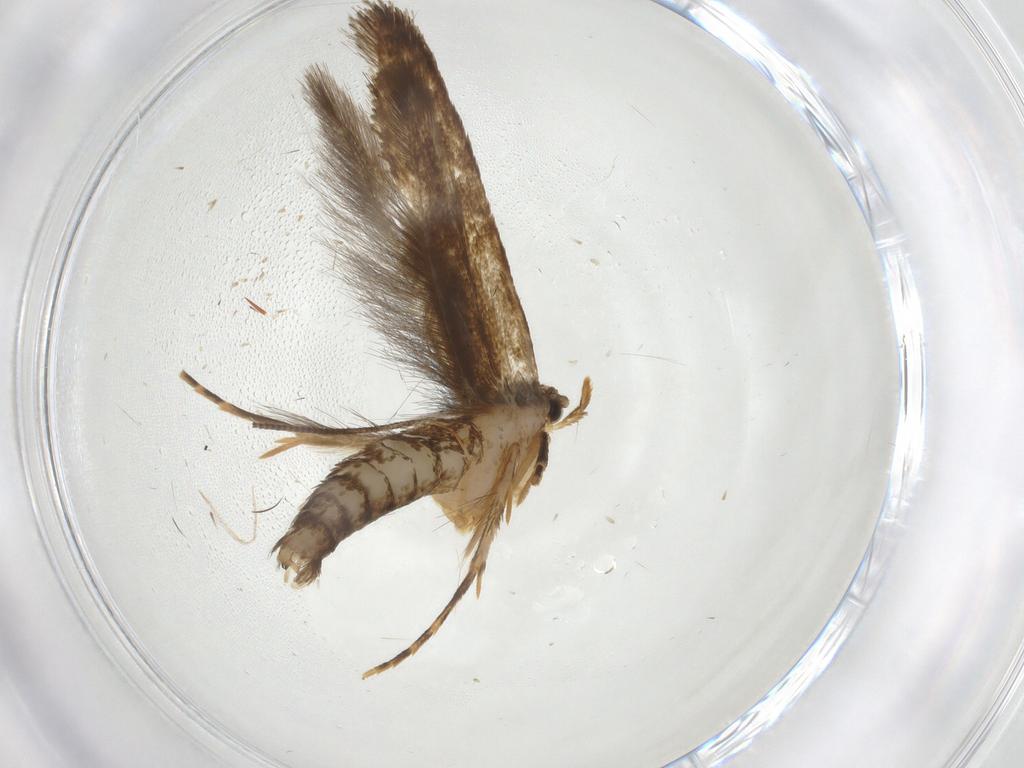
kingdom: Animalia
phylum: Arthropoda
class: Insecta
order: Lepidoptera
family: Tineidae
